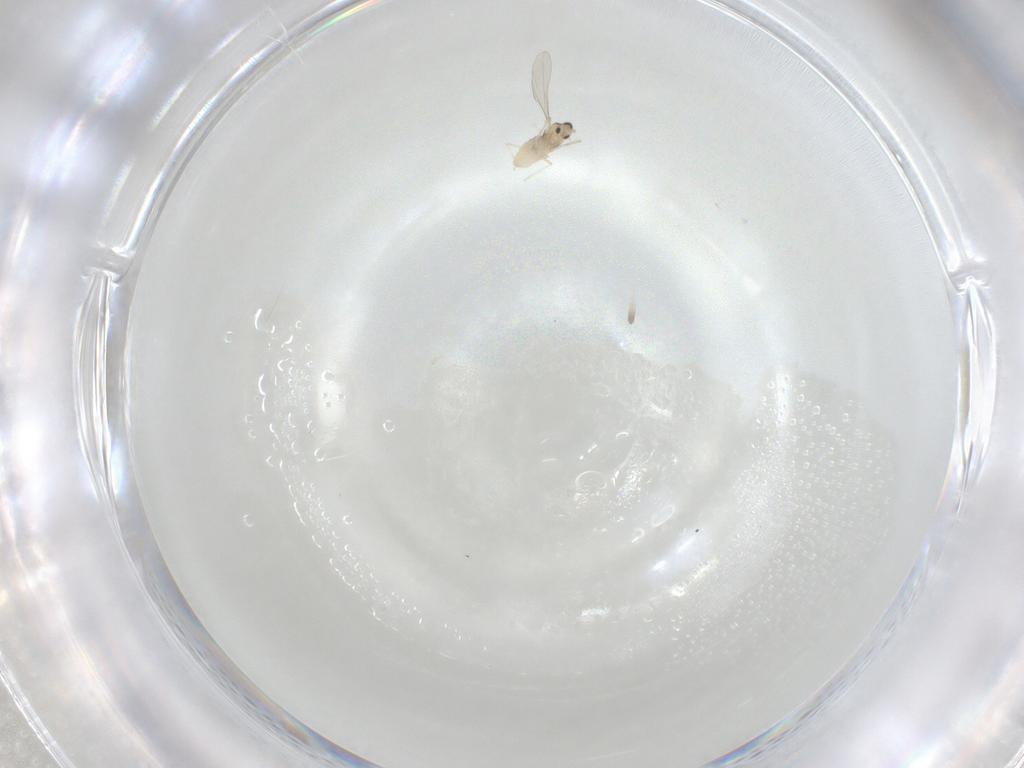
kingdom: Animalia
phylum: Arthropoda
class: Insecta
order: Diptera
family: Cecidomyiidae
